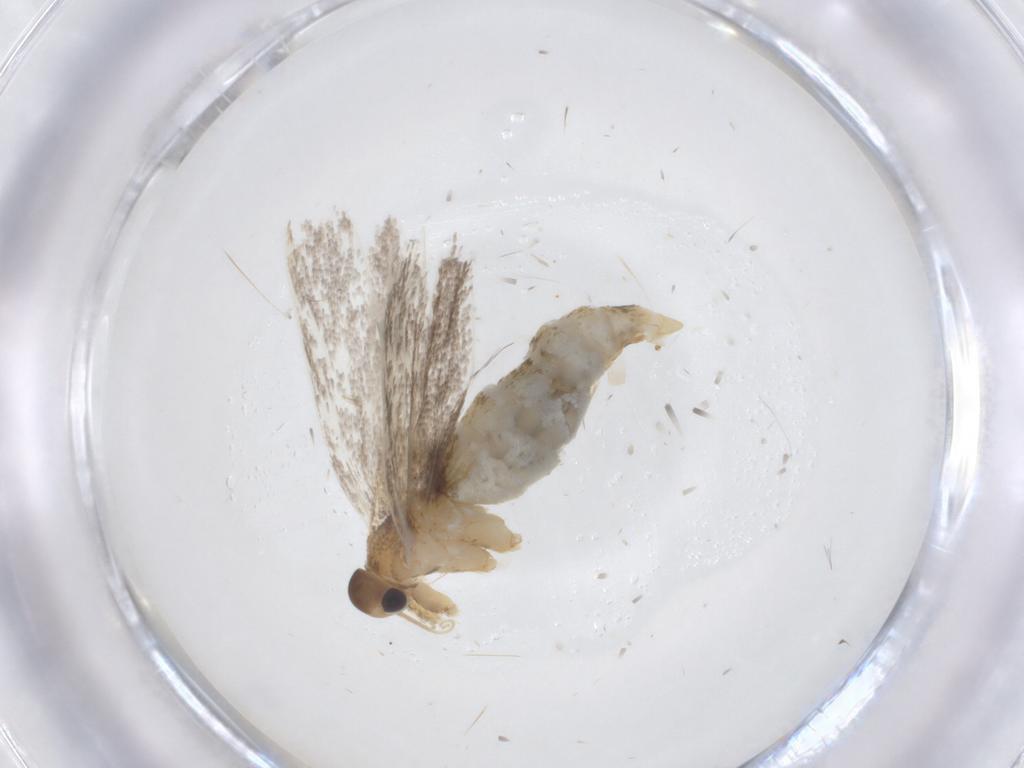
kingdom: Animalia
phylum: Arthropoda
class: Insecta
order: Lepidoptera
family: Oecophoridae
